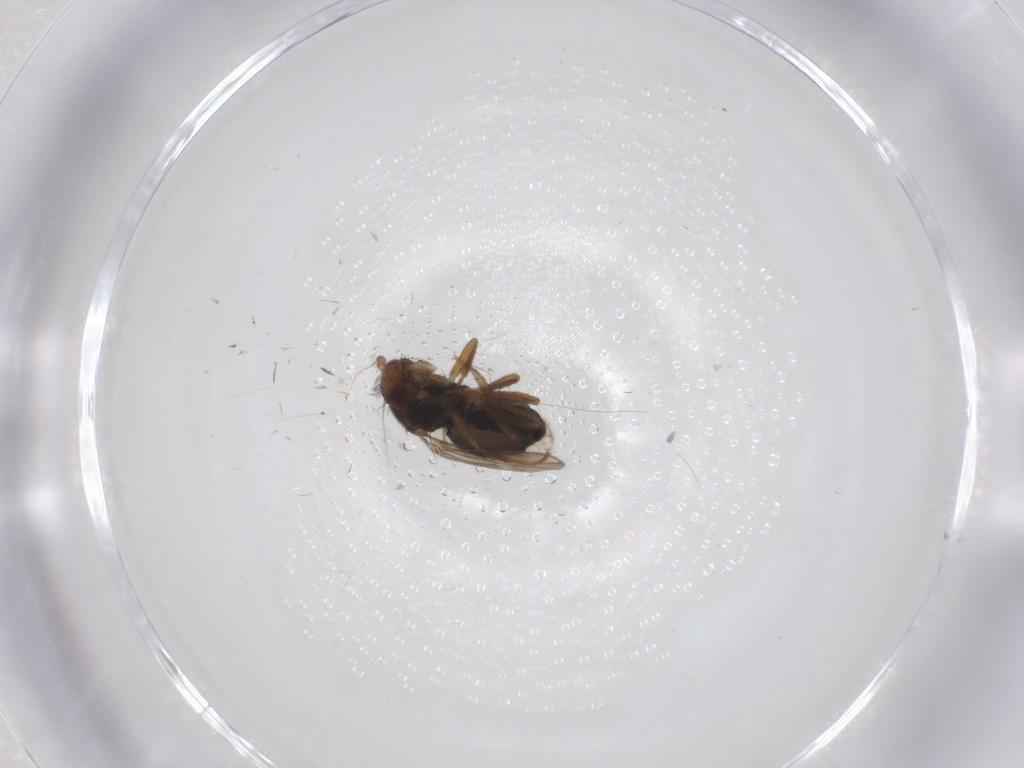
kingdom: Animalia
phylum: Arthropoda
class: Insecta
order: Diptera
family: Sphaeroceridae
